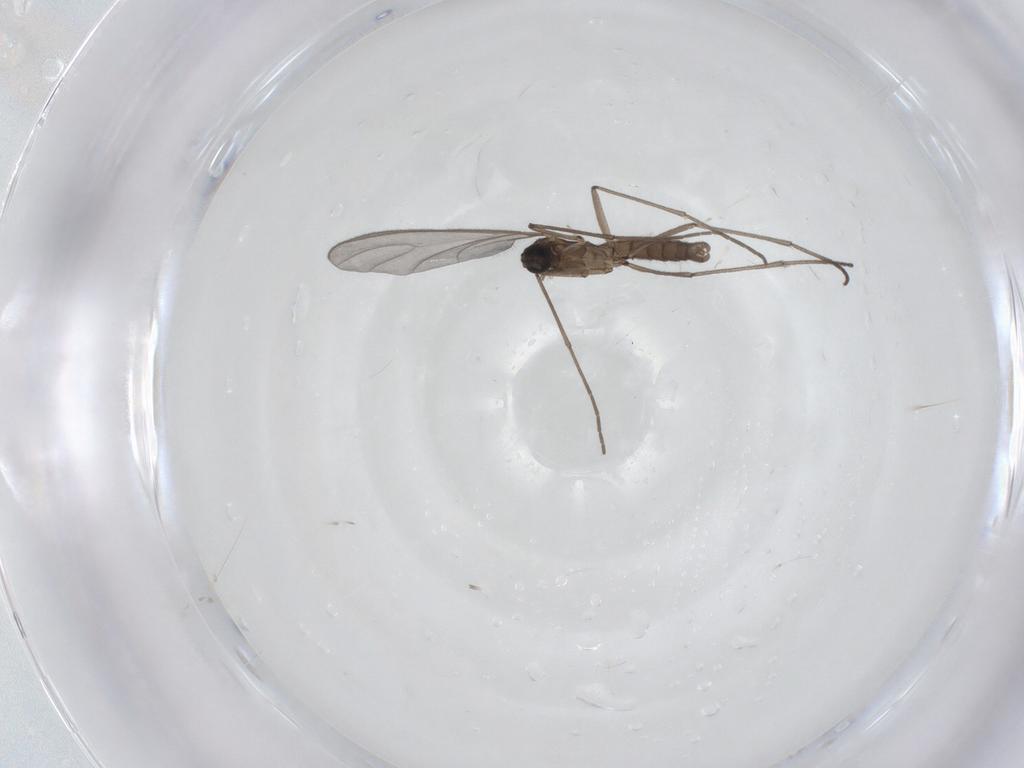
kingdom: Animalia
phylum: Arthropoda
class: Insecta
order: Diptera
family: Sciaridae
